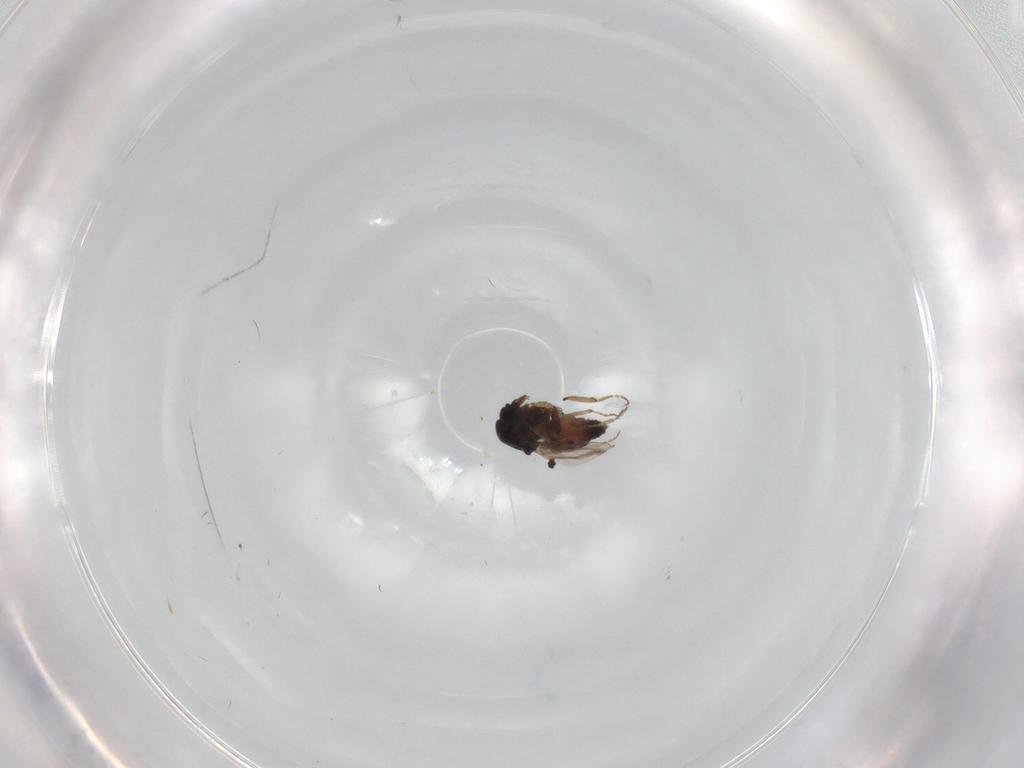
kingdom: Animalia
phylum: Arthropoda
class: Insecta
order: Diptera
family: Ceratopogonidae
